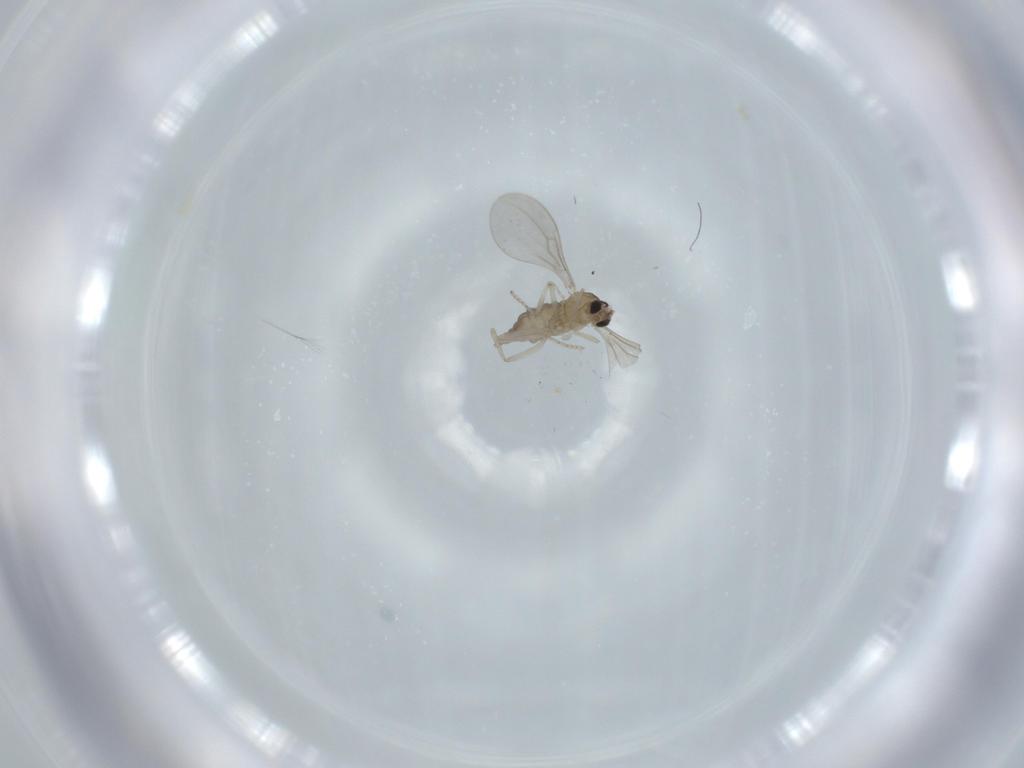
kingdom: Animalia
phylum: Arthropoda
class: Insecta
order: Diptera
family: Cecidomyiidae
